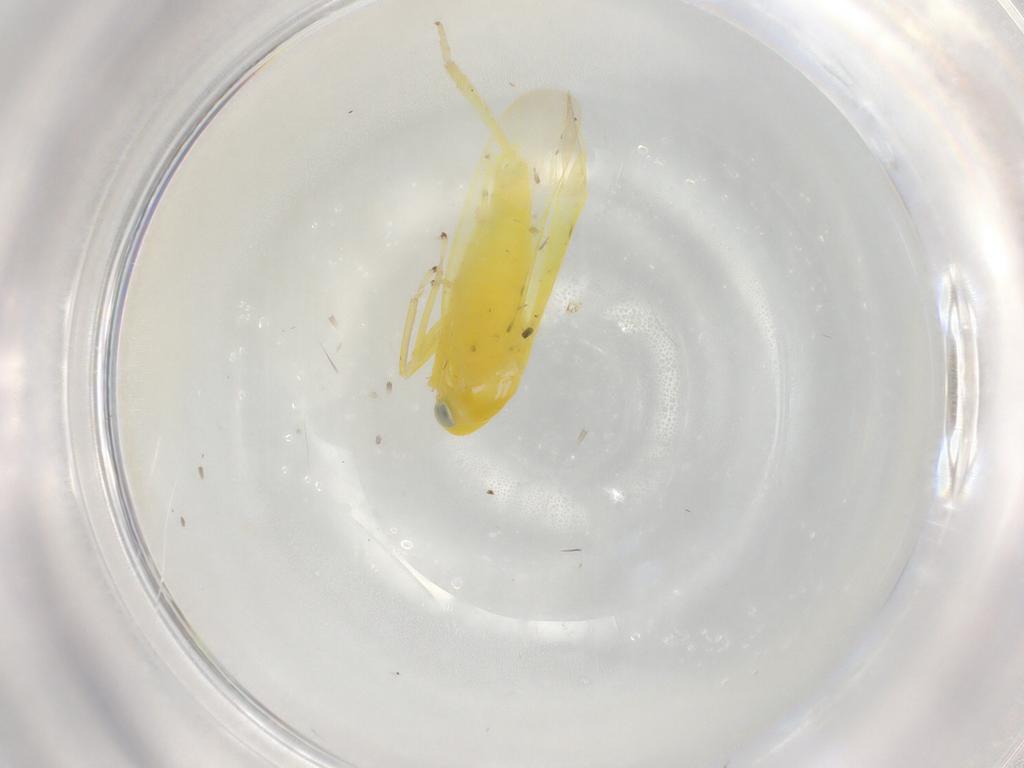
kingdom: Animalia
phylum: Arthropoda
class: Insecta
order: Hemiptera
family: Cicadellidae
